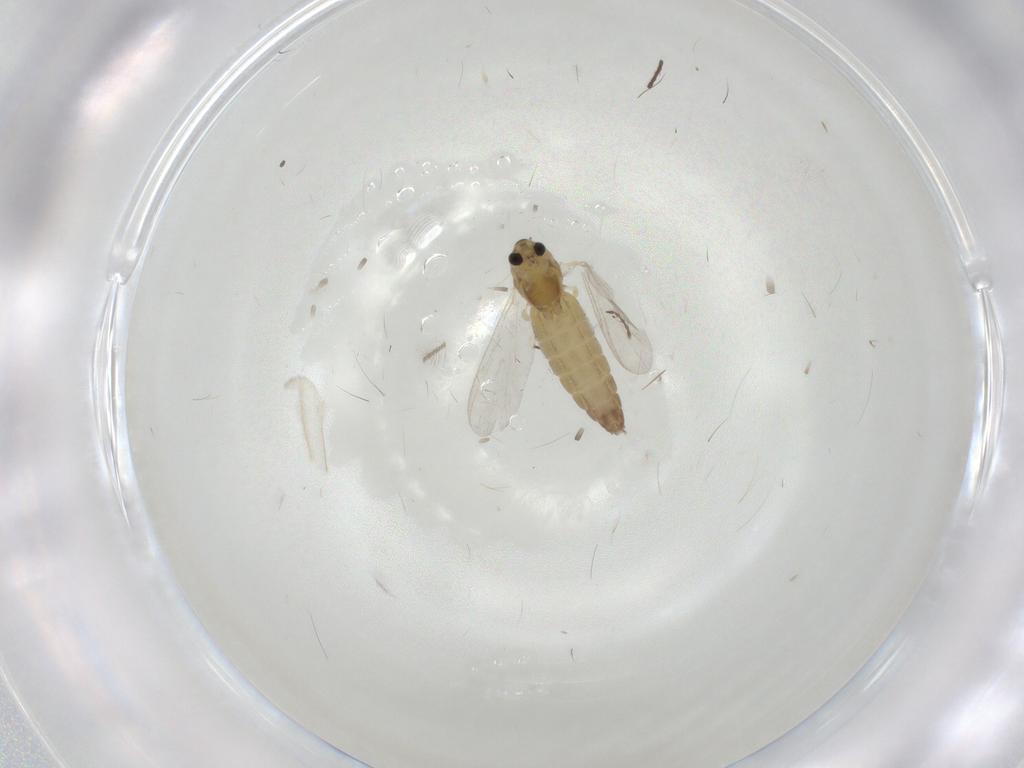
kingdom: Animalia
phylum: Arthropoda
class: Insecta
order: Diptera
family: Chironomidae
